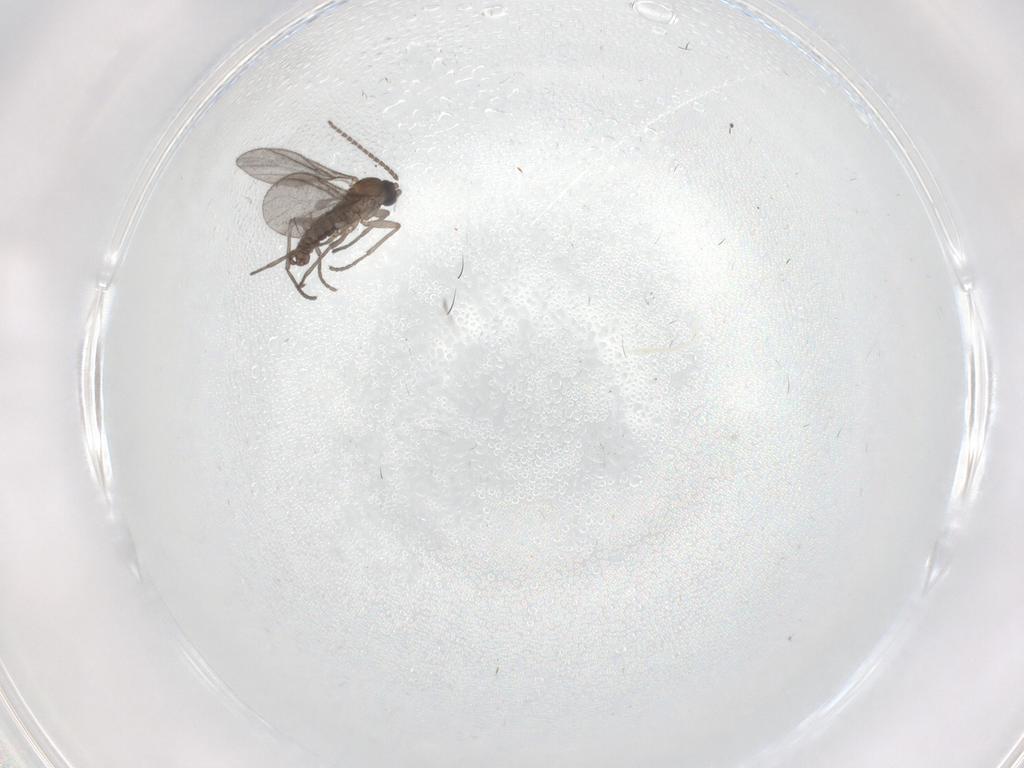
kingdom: Animalia
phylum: Arthropoda
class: Insecta
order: Diptera
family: Sciaridae
